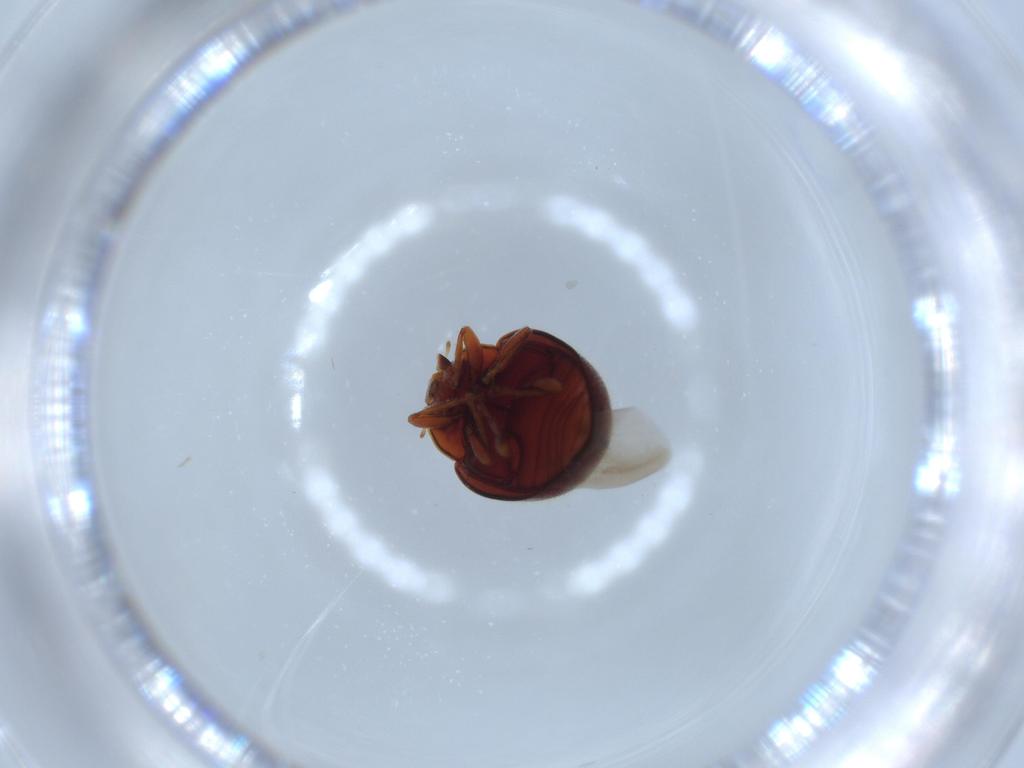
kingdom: Animalia
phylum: Arthropoda
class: Insecta
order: Coleoptera
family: Coccinellidae
